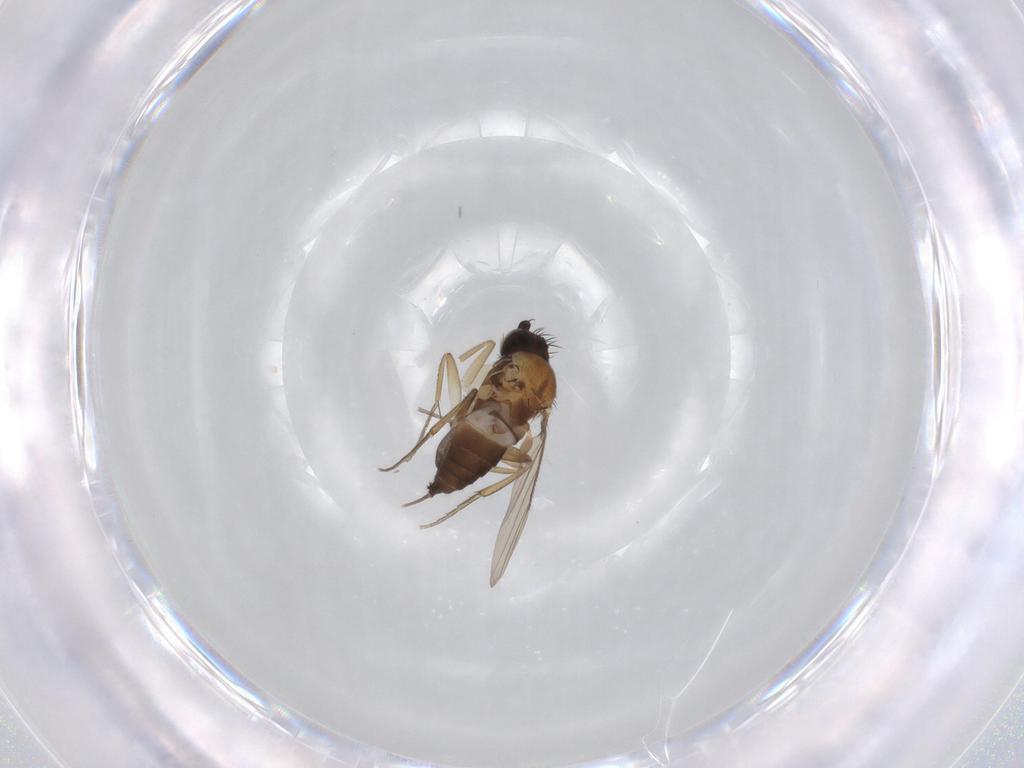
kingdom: Animalia
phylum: Arthropoda
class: Insecta
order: Diptera
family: Phoridae
